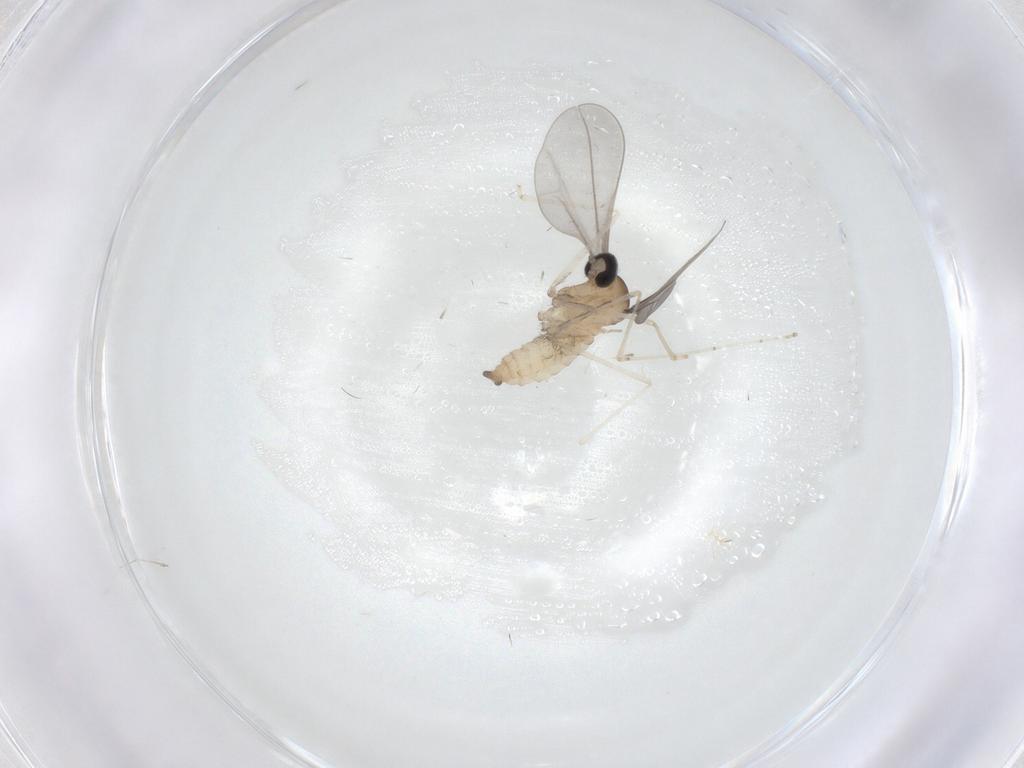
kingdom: Animalia
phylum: Arthropoda
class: Insecta
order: Diptera
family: Cecidomyiidae
